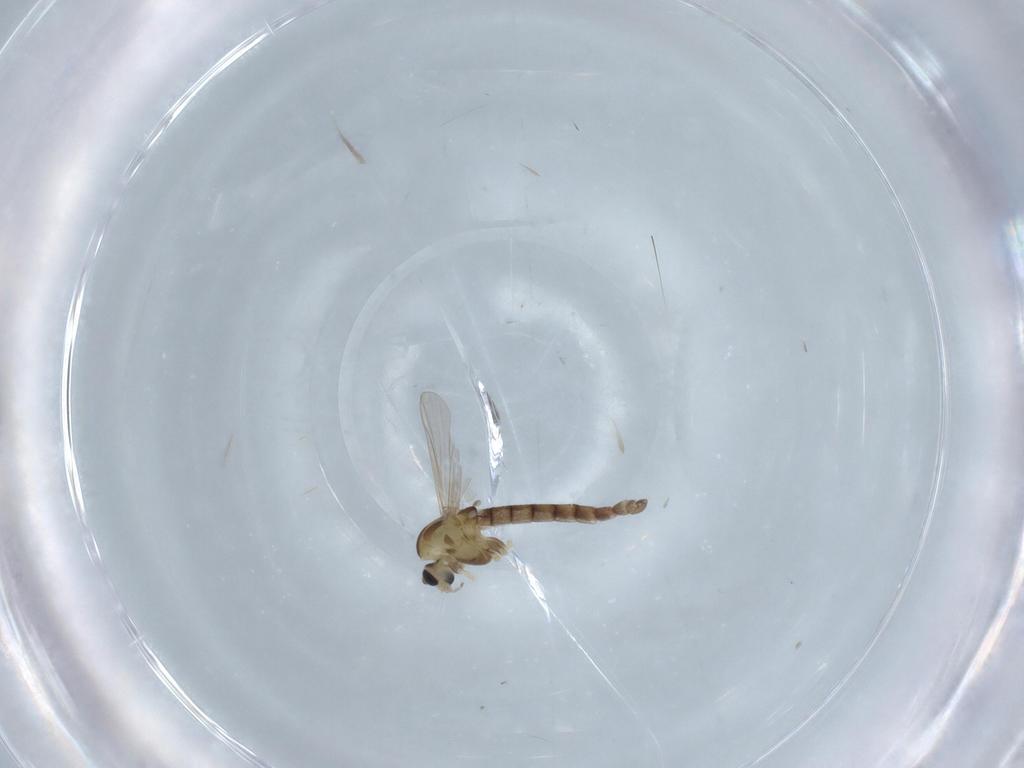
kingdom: Animalia
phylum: Arthropoda
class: Insecta
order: Diptera
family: Chironomidae
